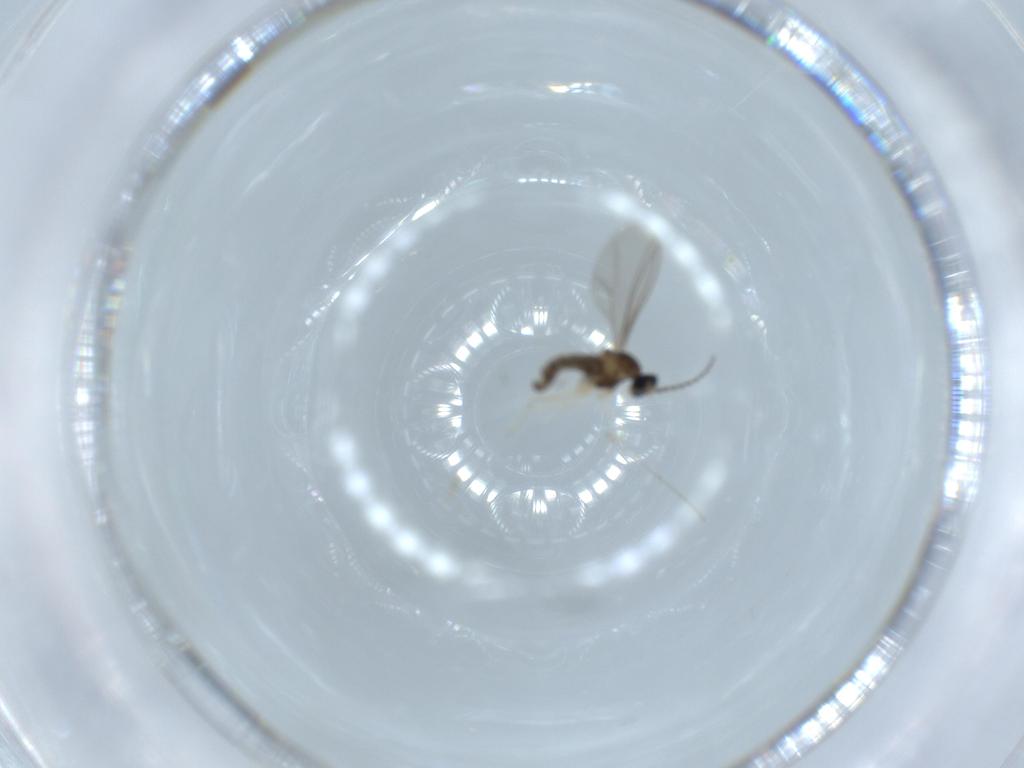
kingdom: Animalia
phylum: Arthropoda
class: Insecta
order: Diptera
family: Cecidomyiidae
